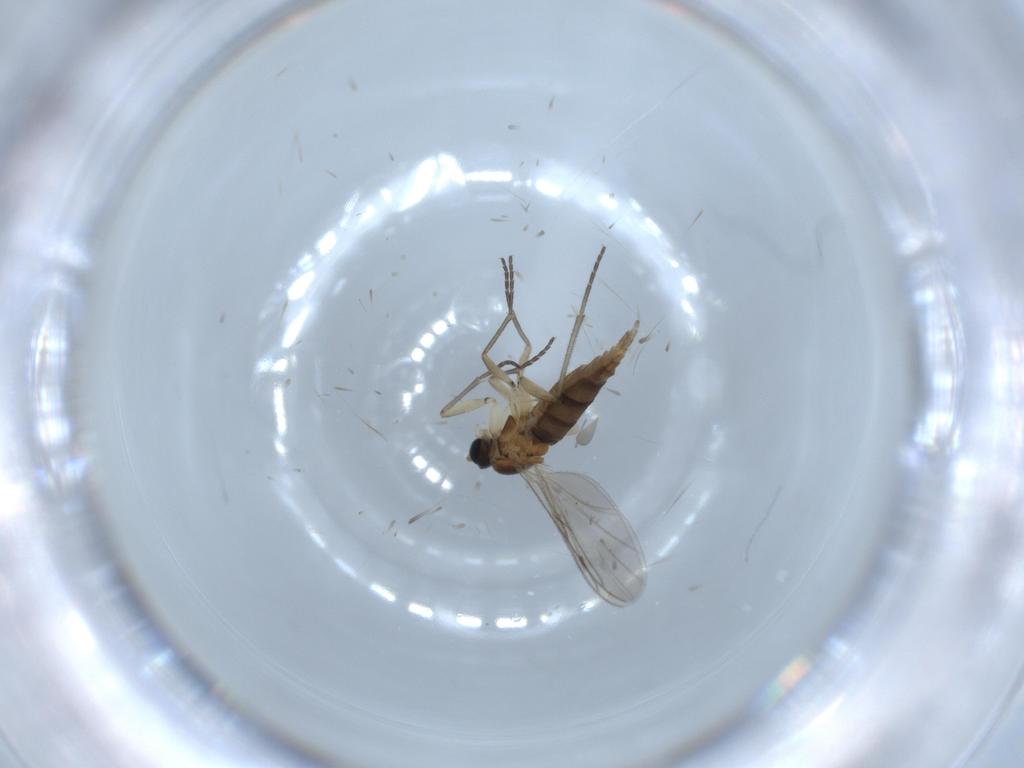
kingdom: Animalia
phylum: Arthropoda
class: Insecta
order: Diptera
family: Sciaridae
